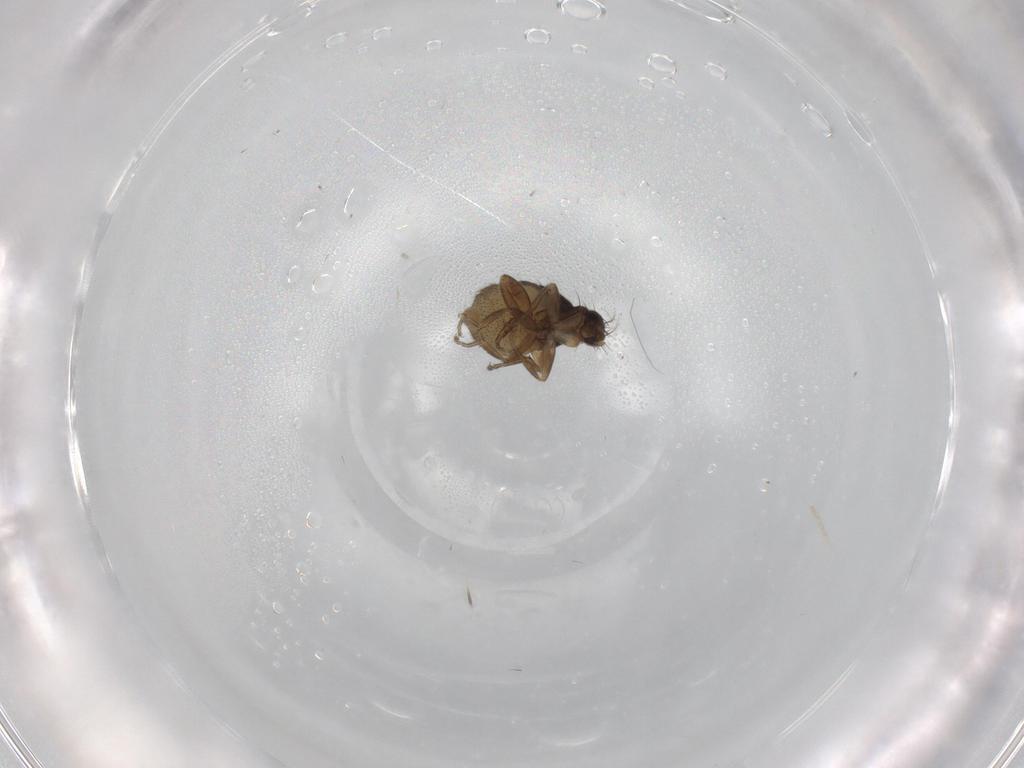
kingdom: Animalia
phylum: Arthropoda
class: Insecta
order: Diptera
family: Phoridae
